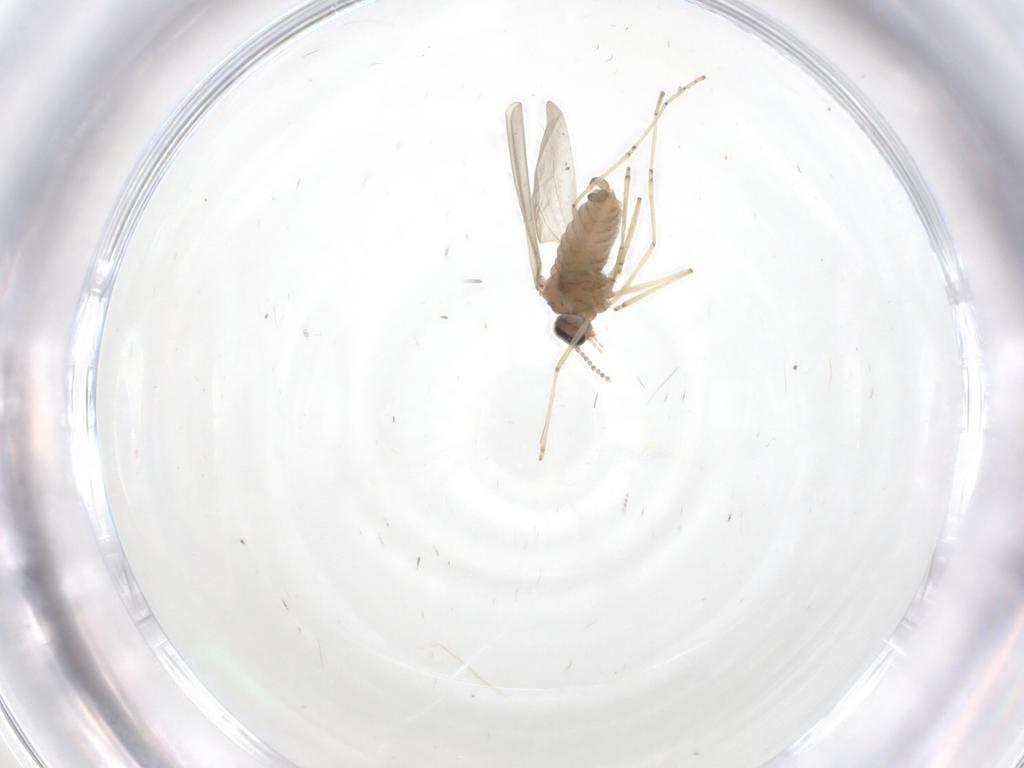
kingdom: Animalia
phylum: Arthropoda
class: Insecta
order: Diptera
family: Cecidomyiidae
